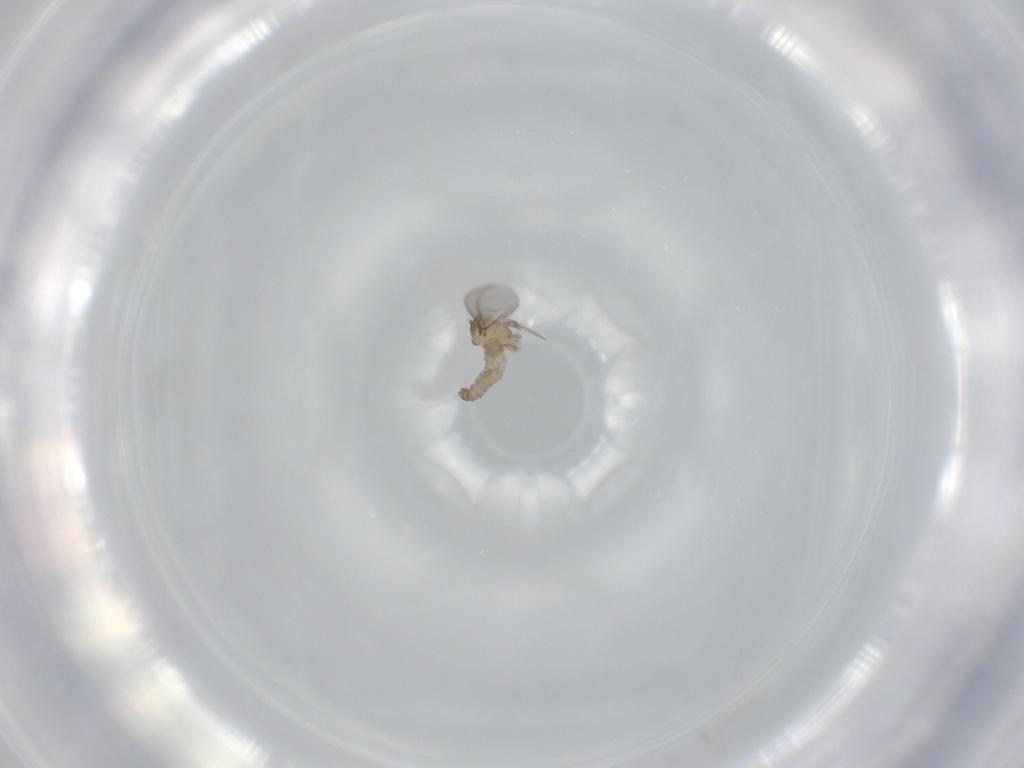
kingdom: Animalia
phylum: Arthropoda
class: Insecta
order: Diptera
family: Cecidomyiidae
